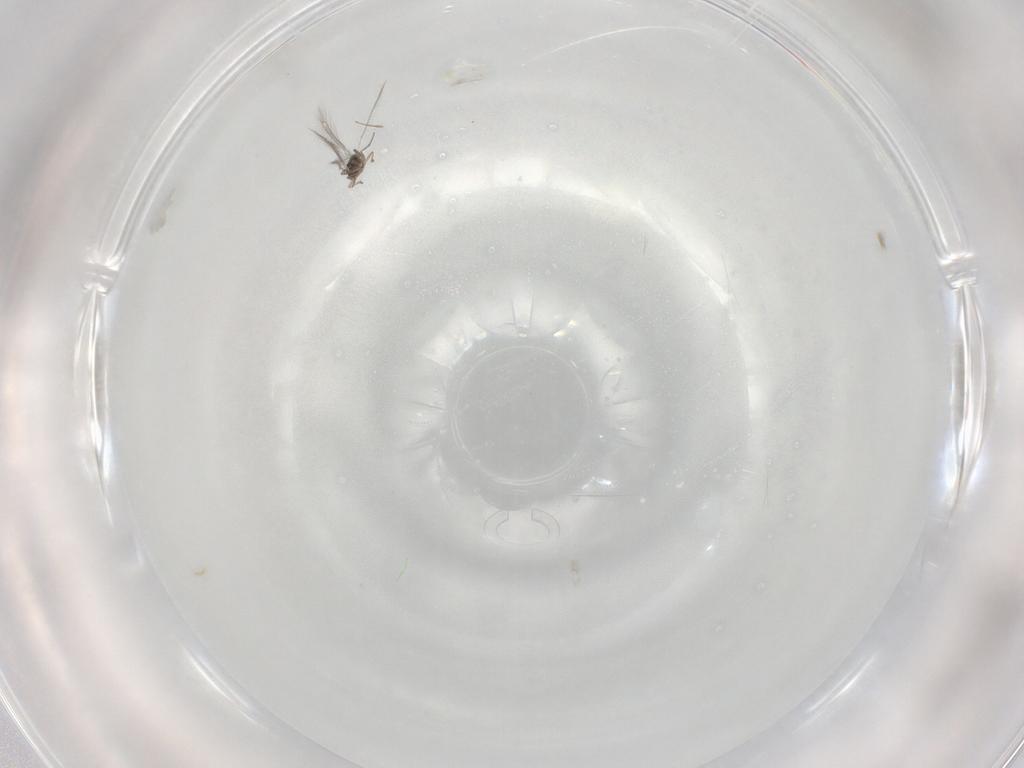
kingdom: Animalia
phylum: Arthropoda
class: Insecta
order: Hymenoptera
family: Mymaridae
